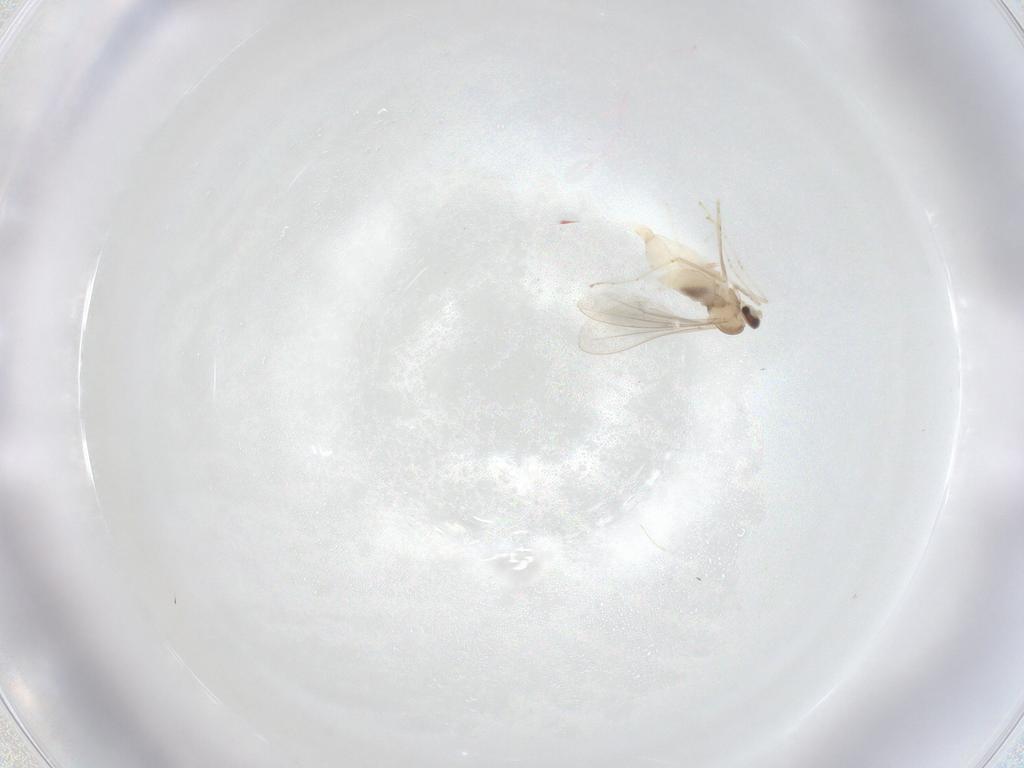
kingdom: Animalia
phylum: Arthropoda
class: Insecta
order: Diptera
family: Cecidomyiidae
